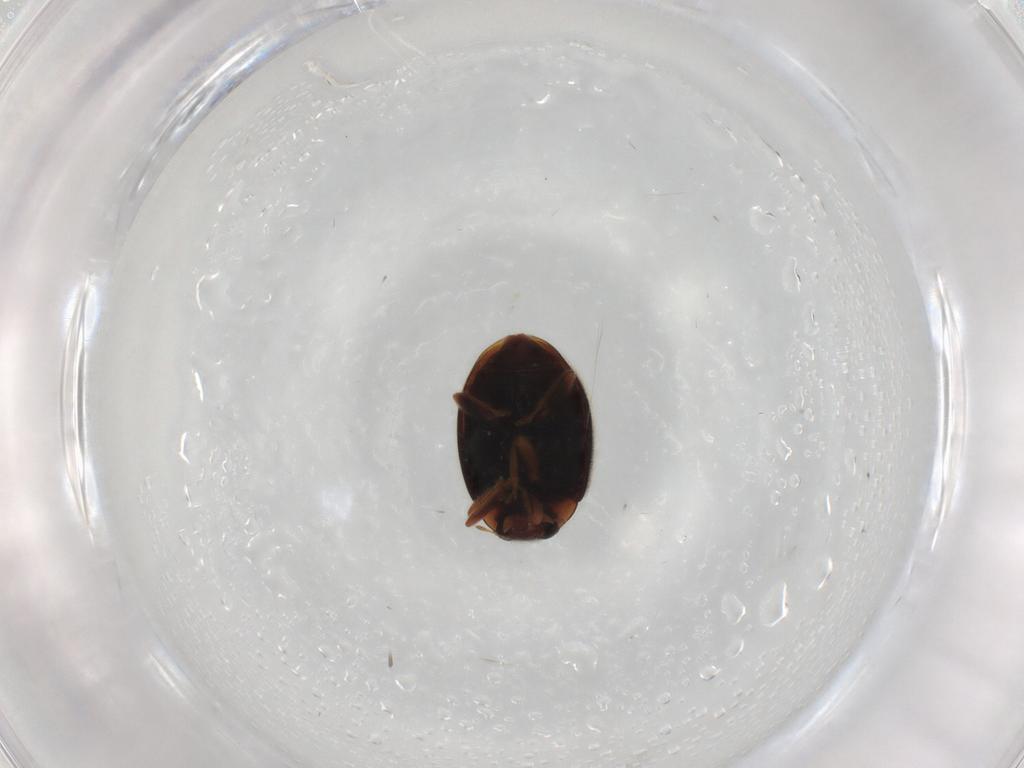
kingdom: Animalia
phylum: Arthropoda
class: Insecta
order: Coleoptera
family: Coccinellidae
